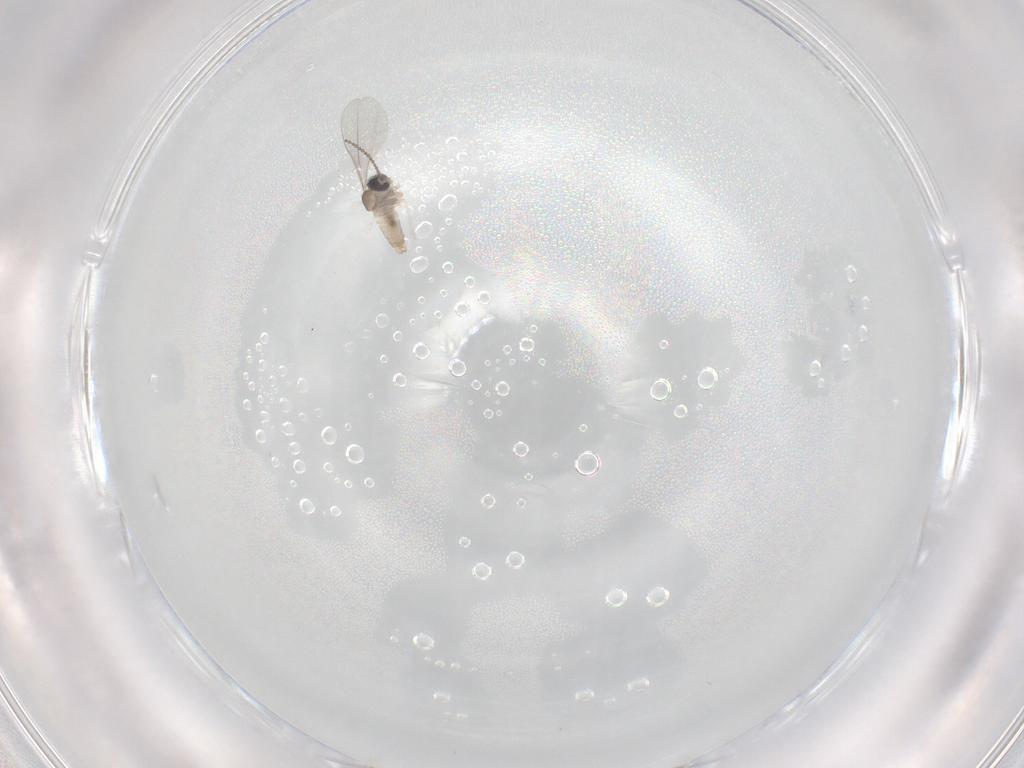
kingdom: Animalia
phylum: Arthropoda
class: Insecta
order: Diptera
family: Cecidomyiidae
